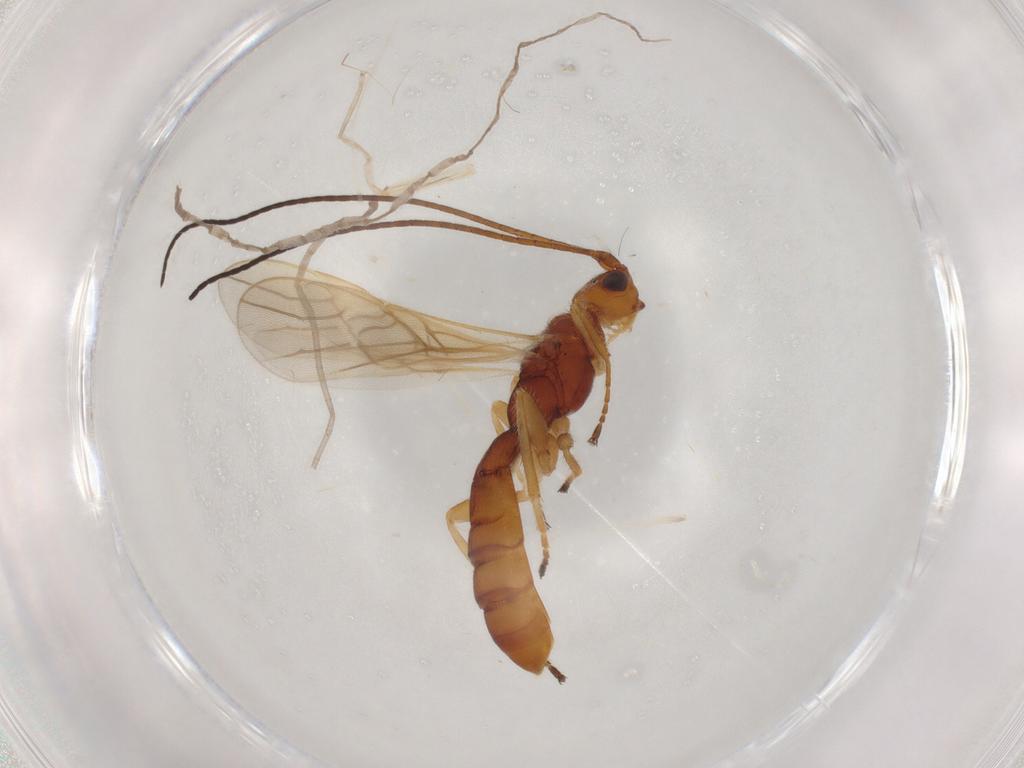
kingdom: Animalia
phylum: Arthropoda
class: Insecta
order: Hymenoptera
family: Braconidae
